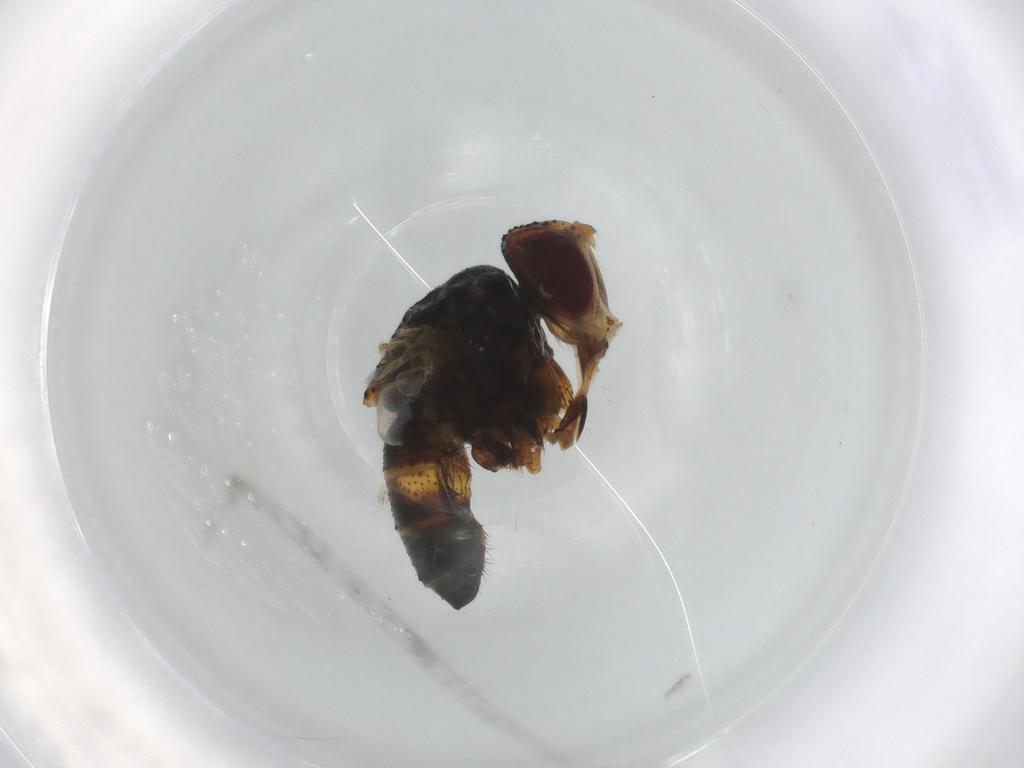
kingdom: Animalia
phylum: Arthropoda
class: Insecta
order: Diptera
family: Tachinidae
